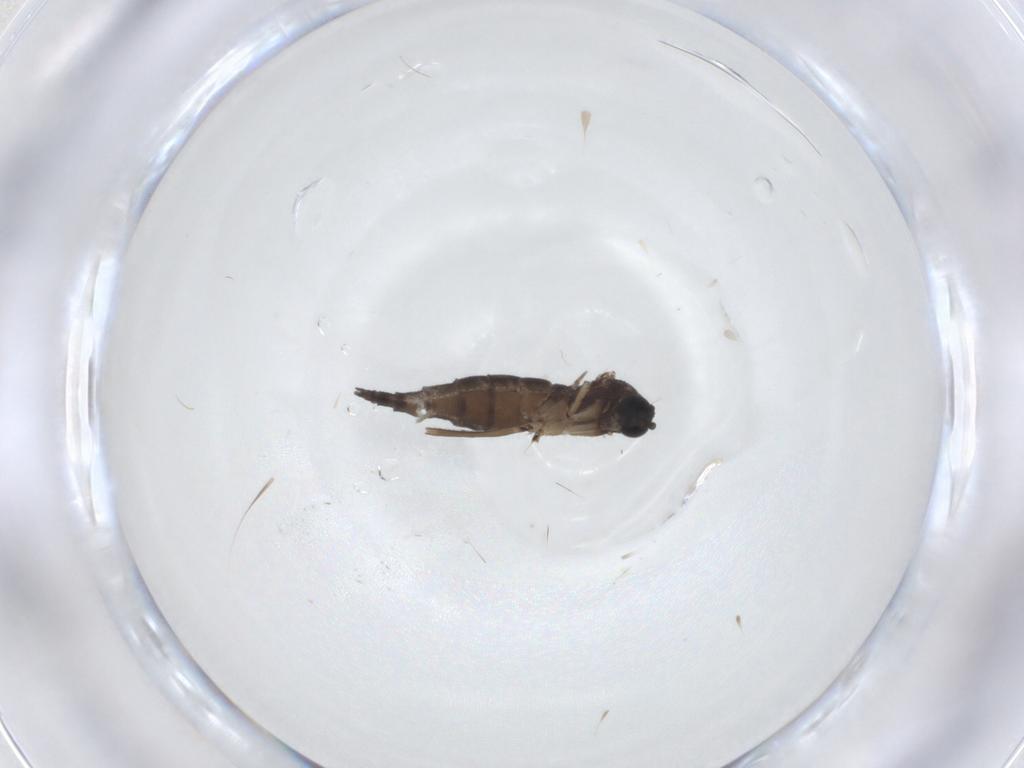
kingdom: Animalia
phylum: Arthropoda
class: Insecta
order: Diptera
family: Sciaridae
